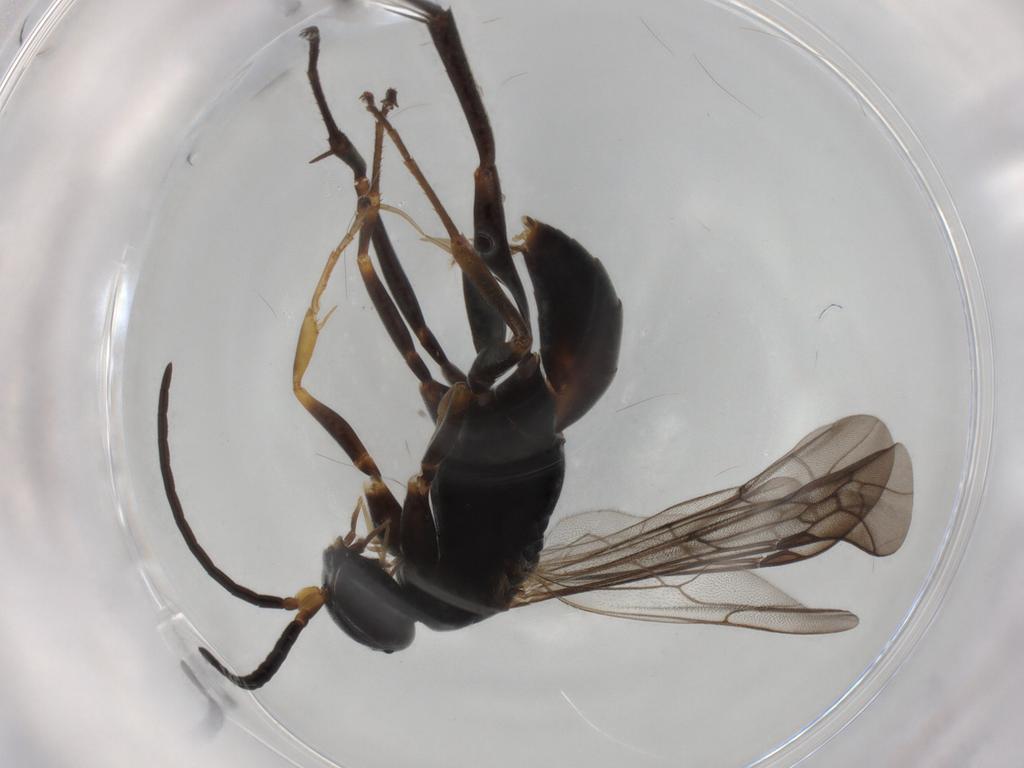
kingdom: Animalia
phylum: Arthropoda
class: Insecta
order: Hymenoptera
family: Pompilidae
